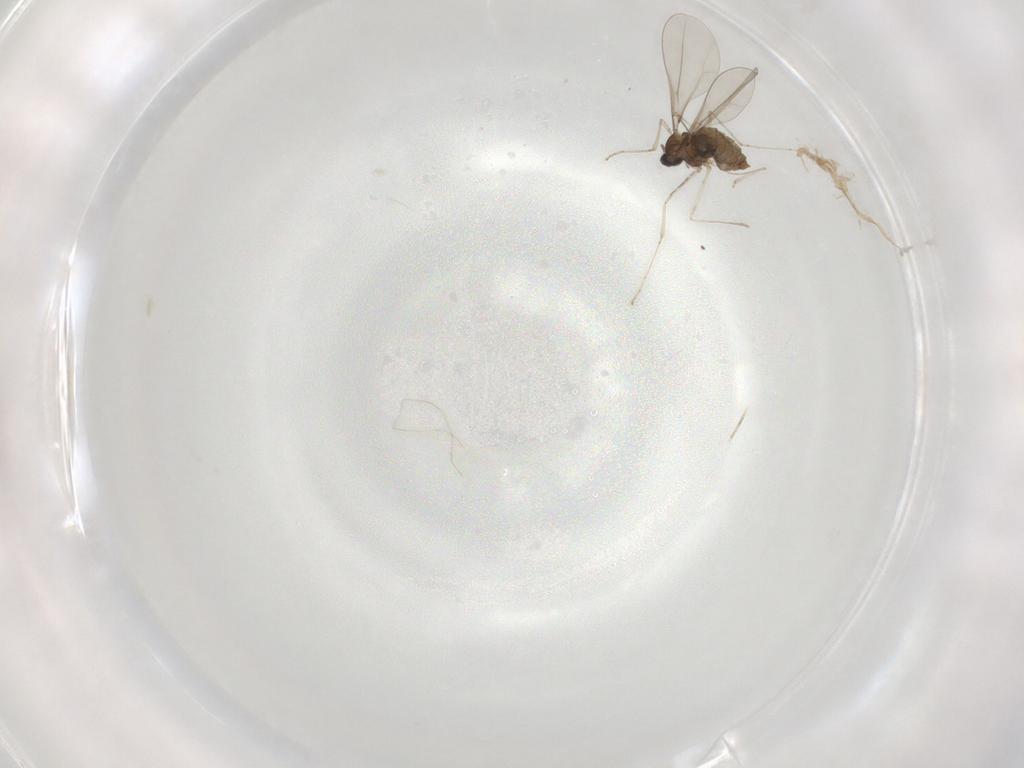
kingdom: Animalia
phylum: Arthropoda
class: Insecta
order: Diptera
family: Cecidomyiidae
